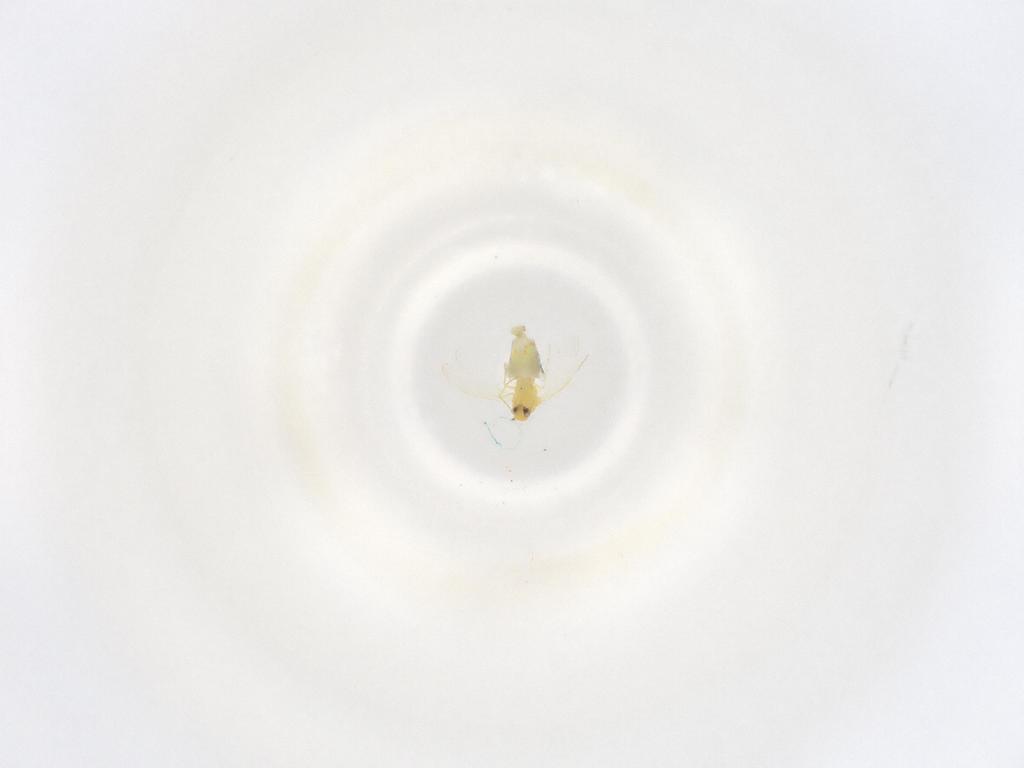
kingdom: Animalia
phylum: Arthropoda
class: Insecta
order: Hemiptera
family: Aleyrodidae
